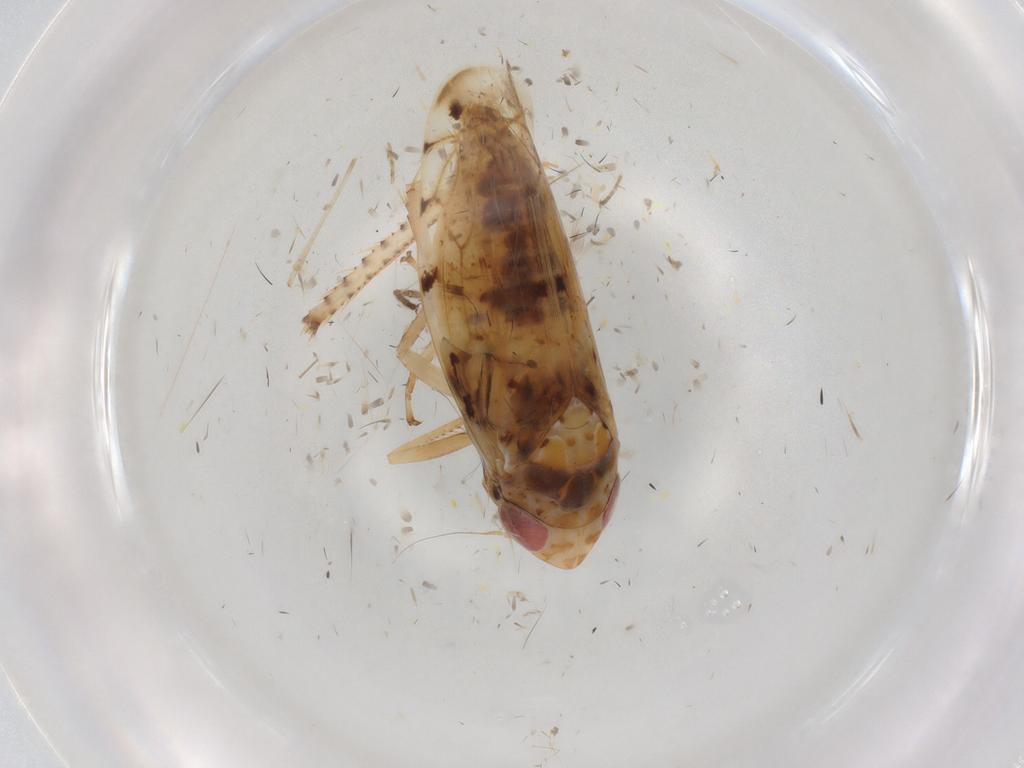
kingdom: Animalia
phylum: Arthropoda
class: Insecta
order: Hemiptera
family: Cicadellidae
